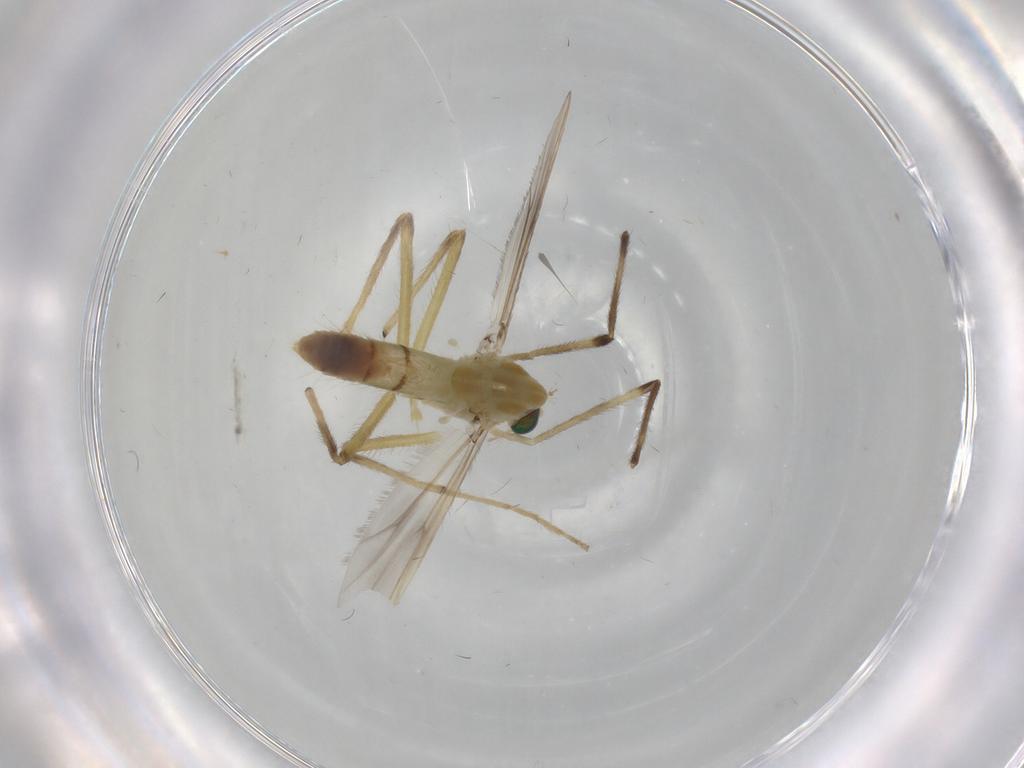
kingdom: Animalia
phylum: Arthropoda
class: Insecta
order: Diptera
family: Chironomidae
